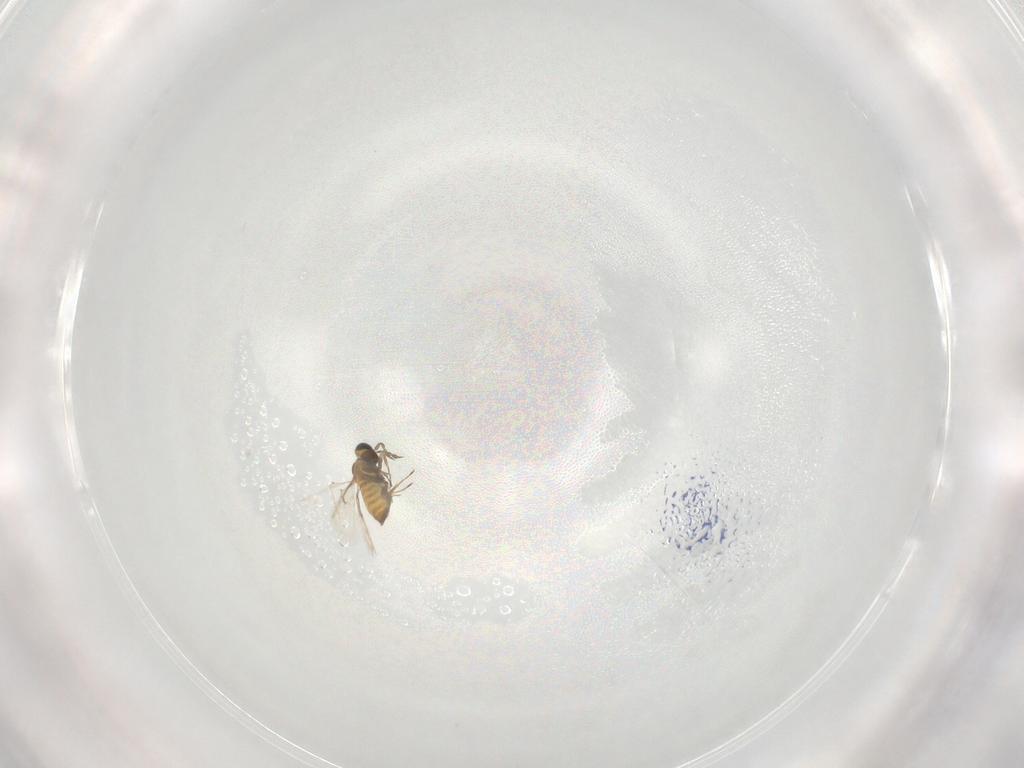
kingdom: Animalia
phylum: Arthropoda
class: Insecta
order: Hymenoptera
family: Trichogrammatidae
